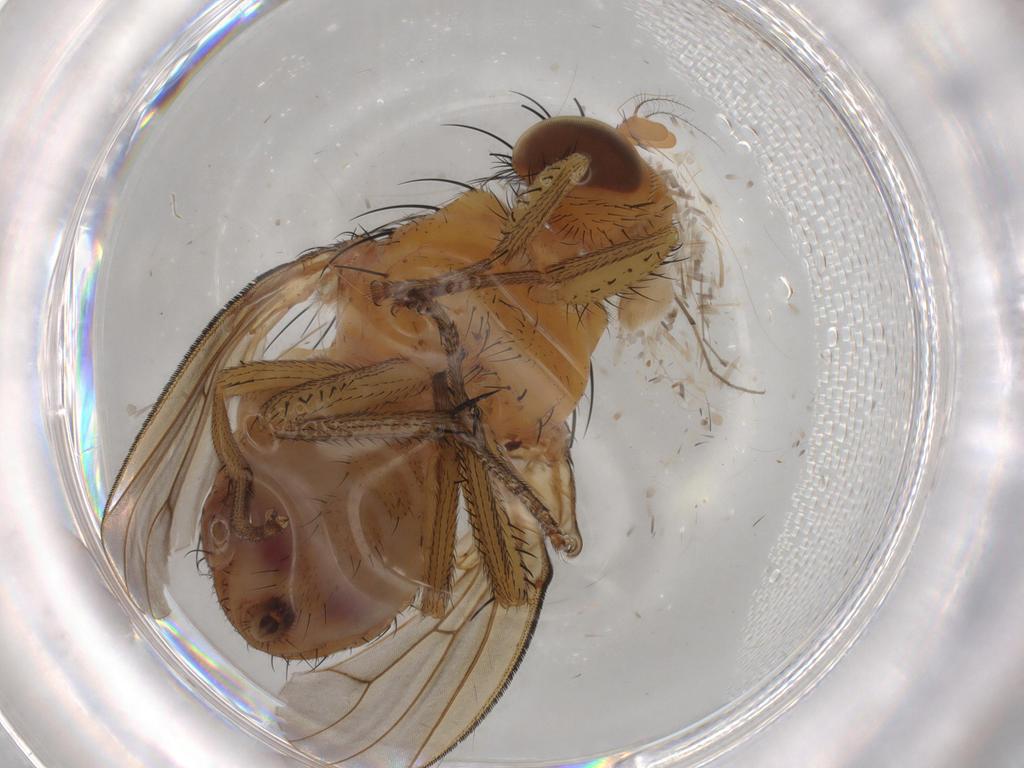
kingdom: Animalia
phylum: Arthropoda
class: Insecta
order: Diptera
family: Chironomidae
